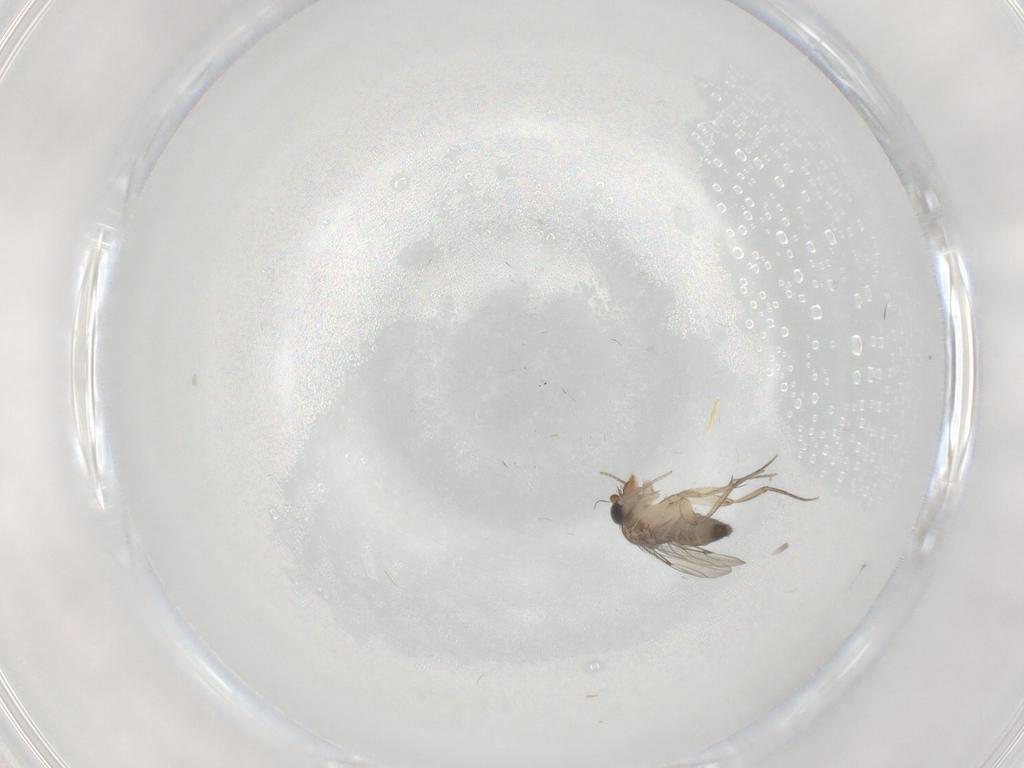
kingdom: Animalia
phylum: Arthropoda
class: Insecta
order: Diptera
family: Phoridae
